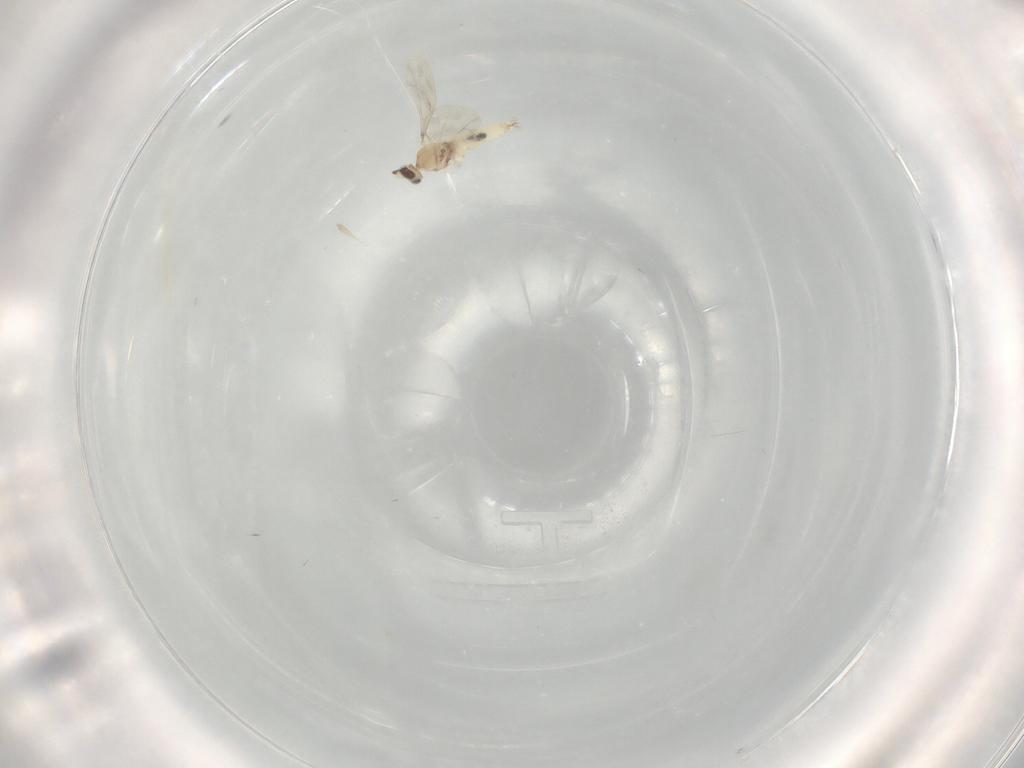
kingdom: Animalia
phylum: Arthropoda
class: Insecta
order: Diptera
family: Cecidomyiidae
